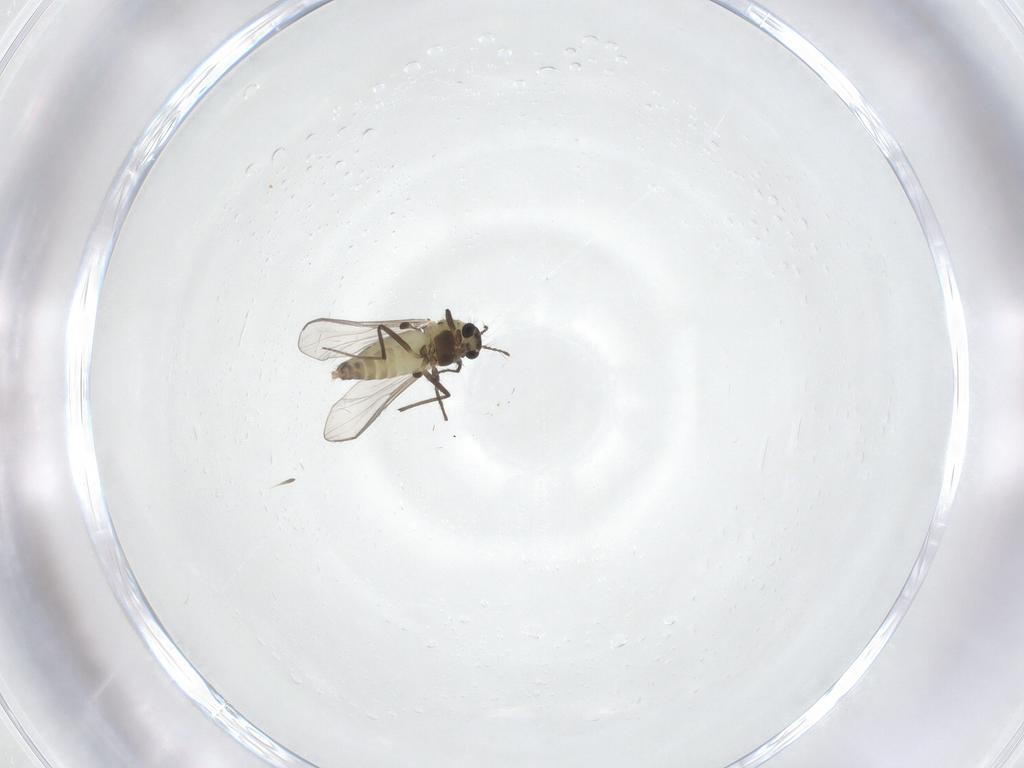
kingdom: Animalia
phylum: Arthropoda
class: Insecta
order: Diptera
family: Chironomidae
